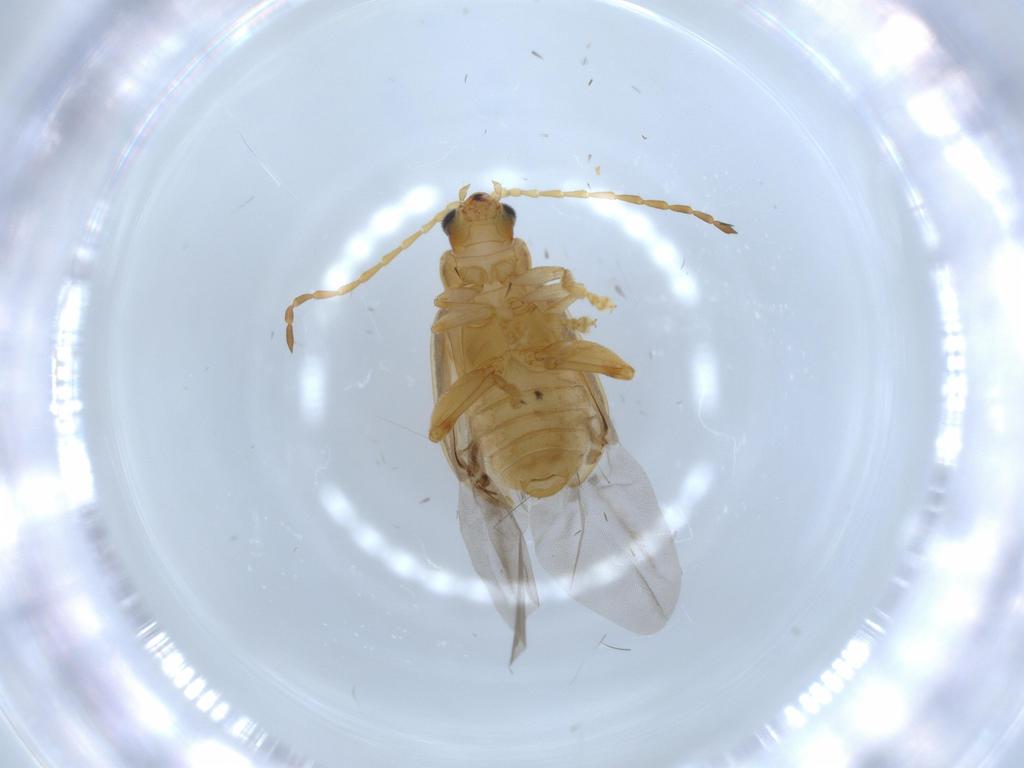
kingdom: Animalia
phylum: Arthropoda
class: Insecta
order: Coleoptera
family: Chrysomelidae
